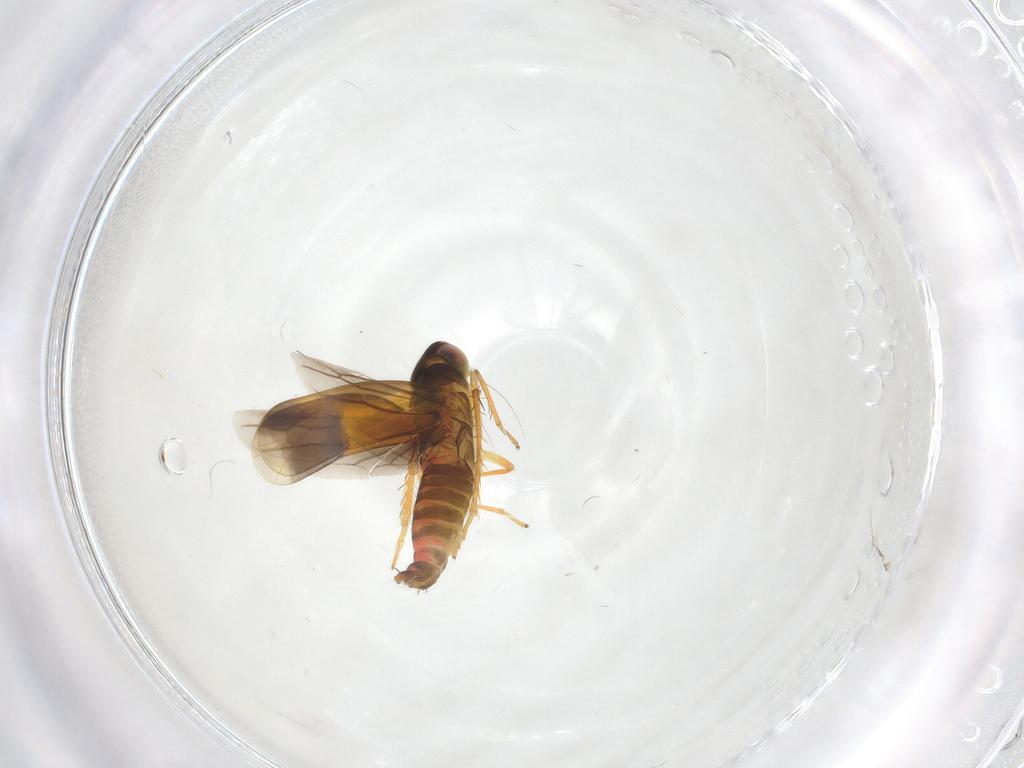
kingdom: Animalia
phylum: Arthropoda
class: Insecta
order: Hemiptera
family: Cicadellidae
